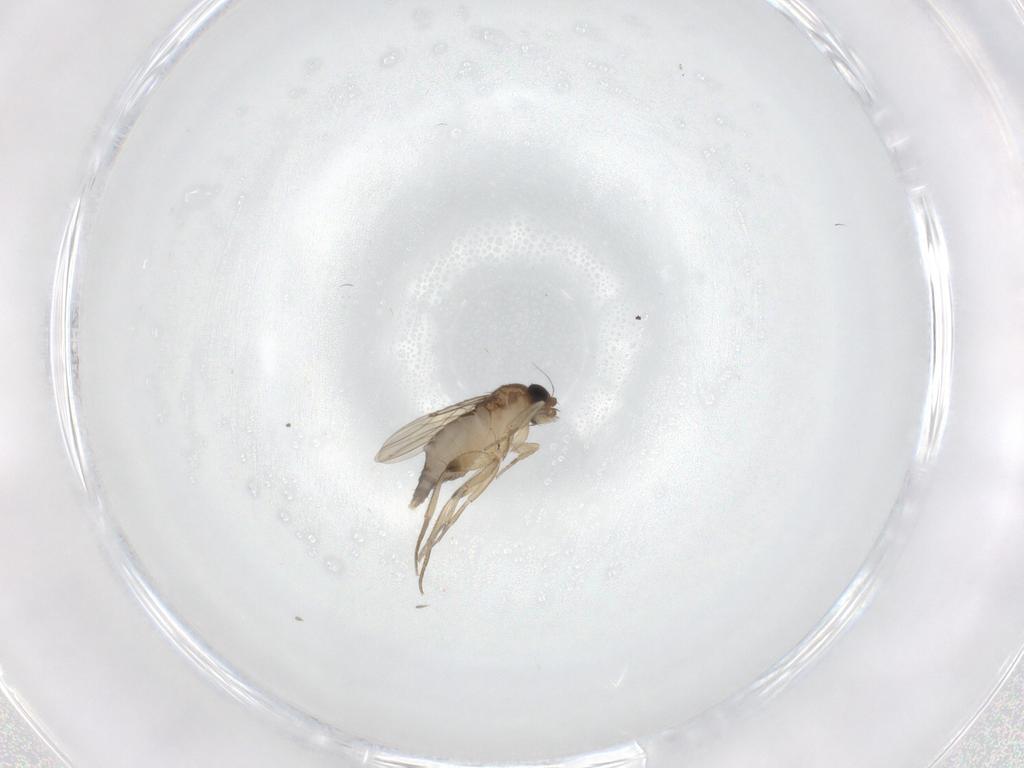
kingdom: Animalia
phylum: Arthropoda
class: Insecta
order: Diptera
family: Phoridae
